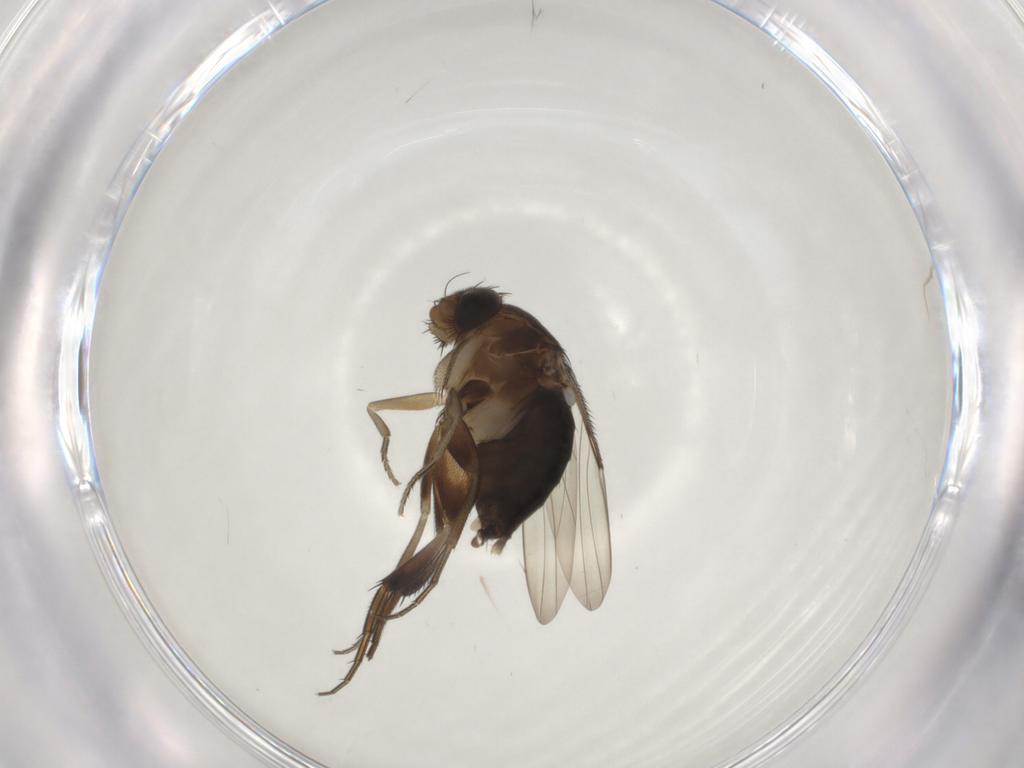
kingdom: Animalia
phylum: Arthropoda
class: Insecta
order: Diptera
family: Phoridae
